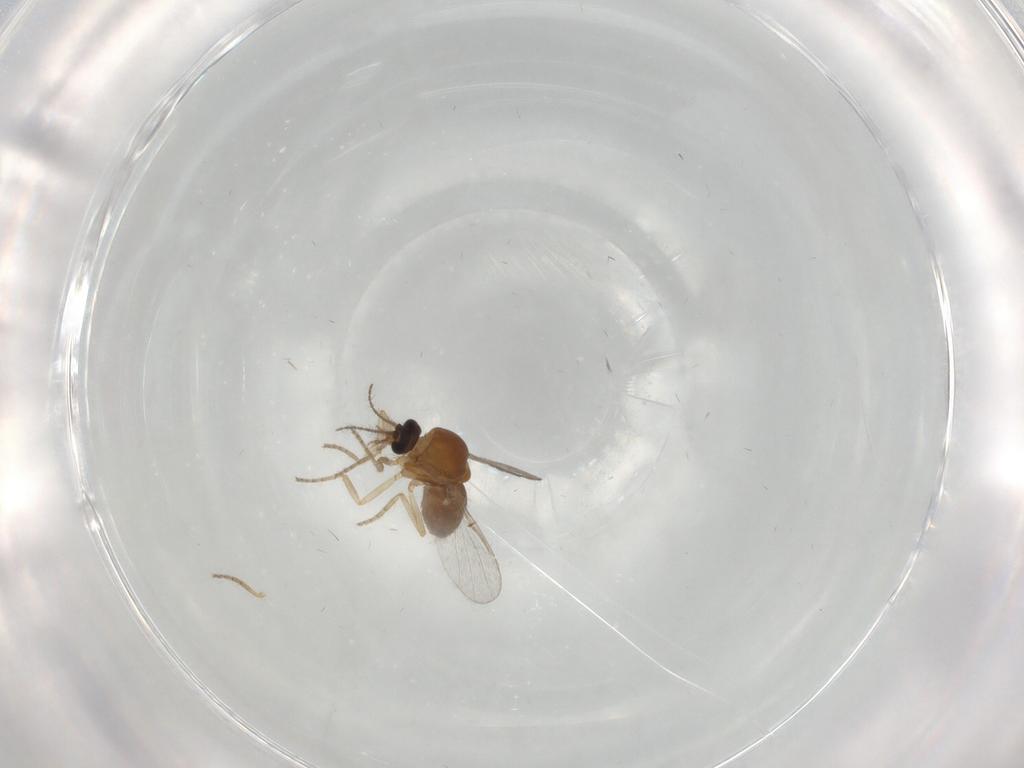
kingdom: Animalia
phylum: Arthropoda
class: Insecta
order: Diptera
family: Ceratopogonidae
